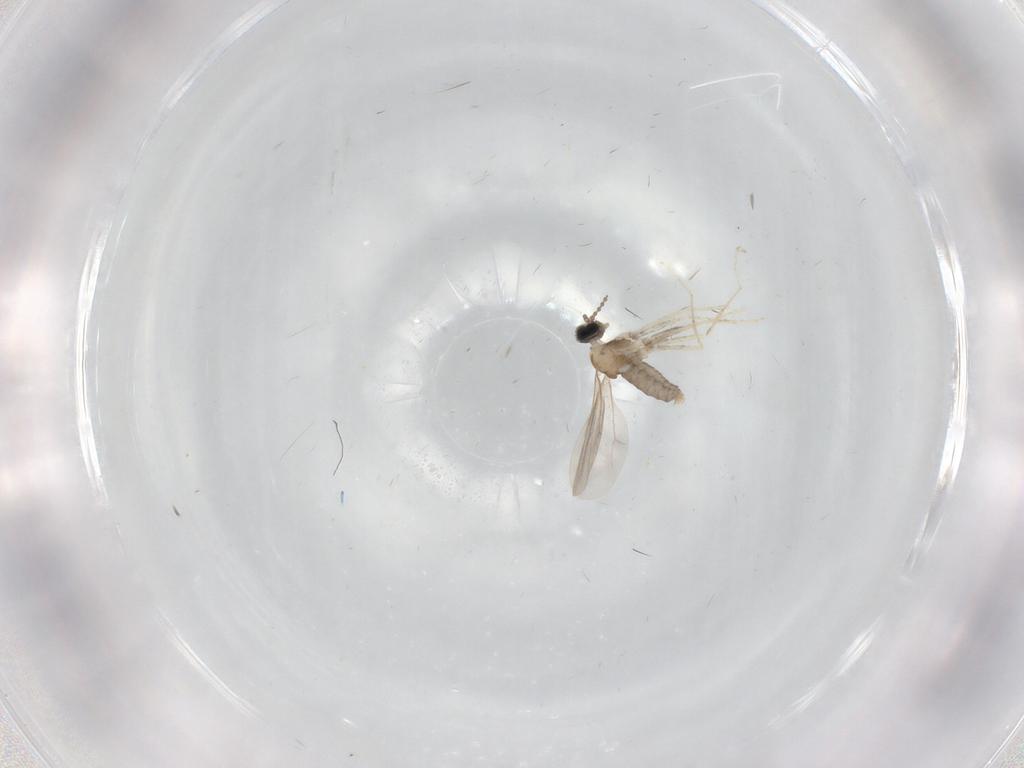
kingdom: Animalia
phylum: Arthropoda
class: Insecta
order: Diptera
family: Cecidomyiidae
